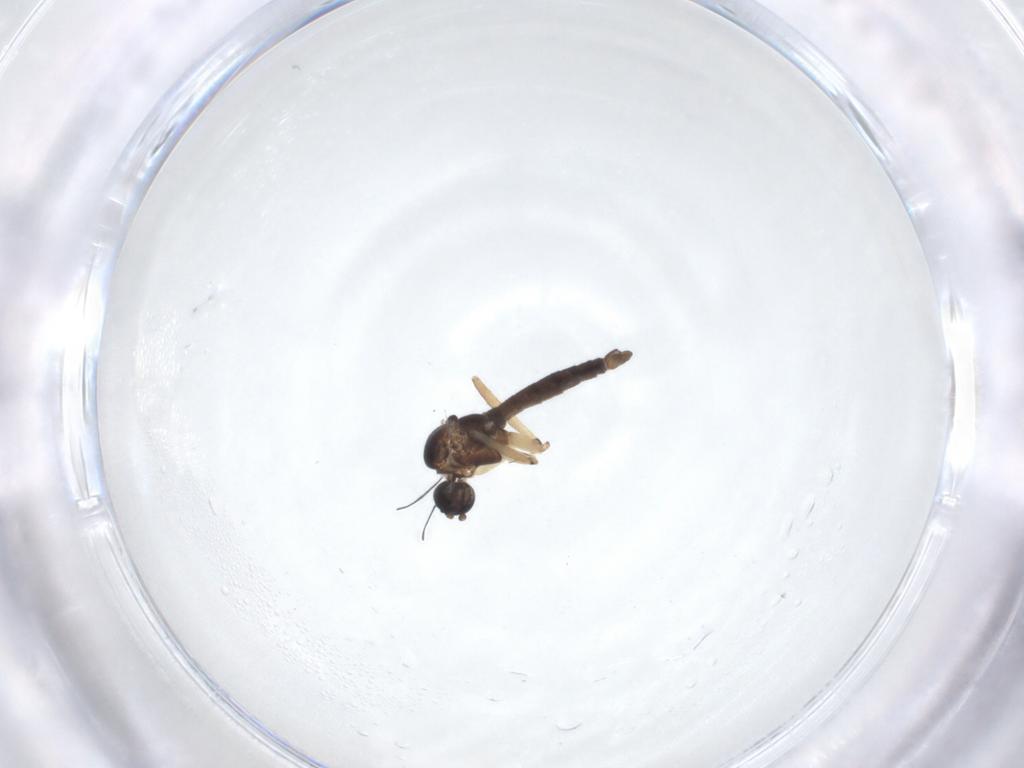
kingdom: Animalia
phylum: Arthropoda
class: Insecta
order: Diptera
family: Sciaridae
